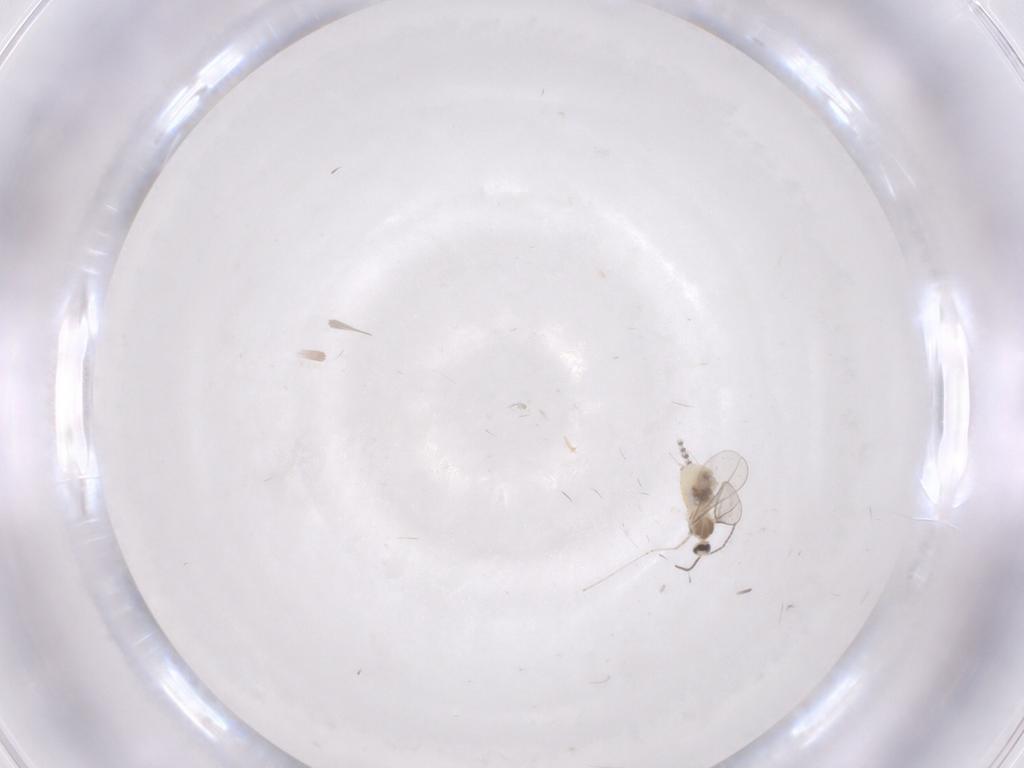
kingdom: Animalia
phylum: Arthropoda
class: Insecta
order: Diptera
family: Cecidomyiidae
